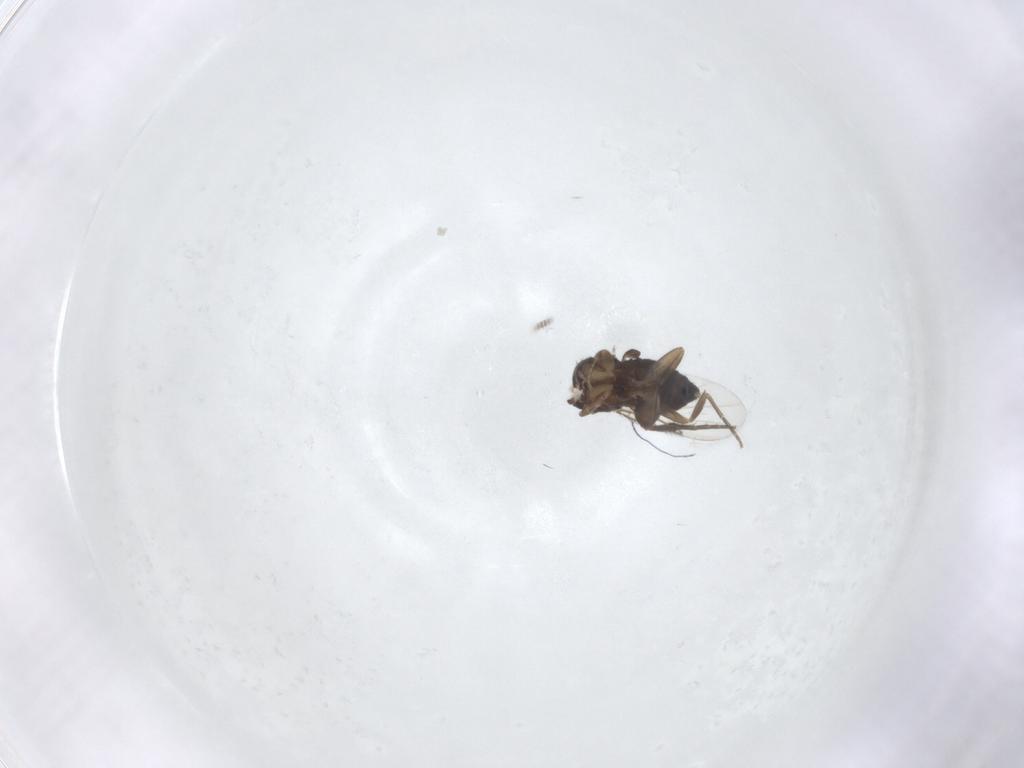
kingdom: Animalia
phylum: Arthropoda
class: Insecta
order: Diptera
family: Phoridae
